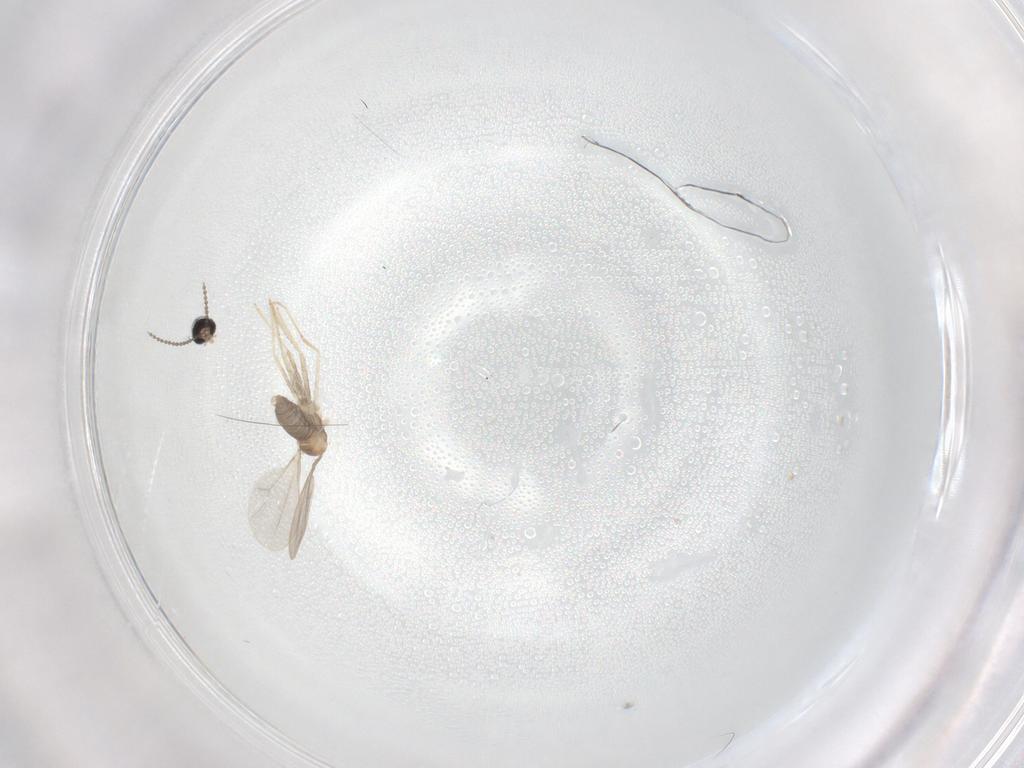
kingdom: Animalia
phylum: Arthropoda
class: Insecta
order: Diptera
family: Cecidomyiidae
